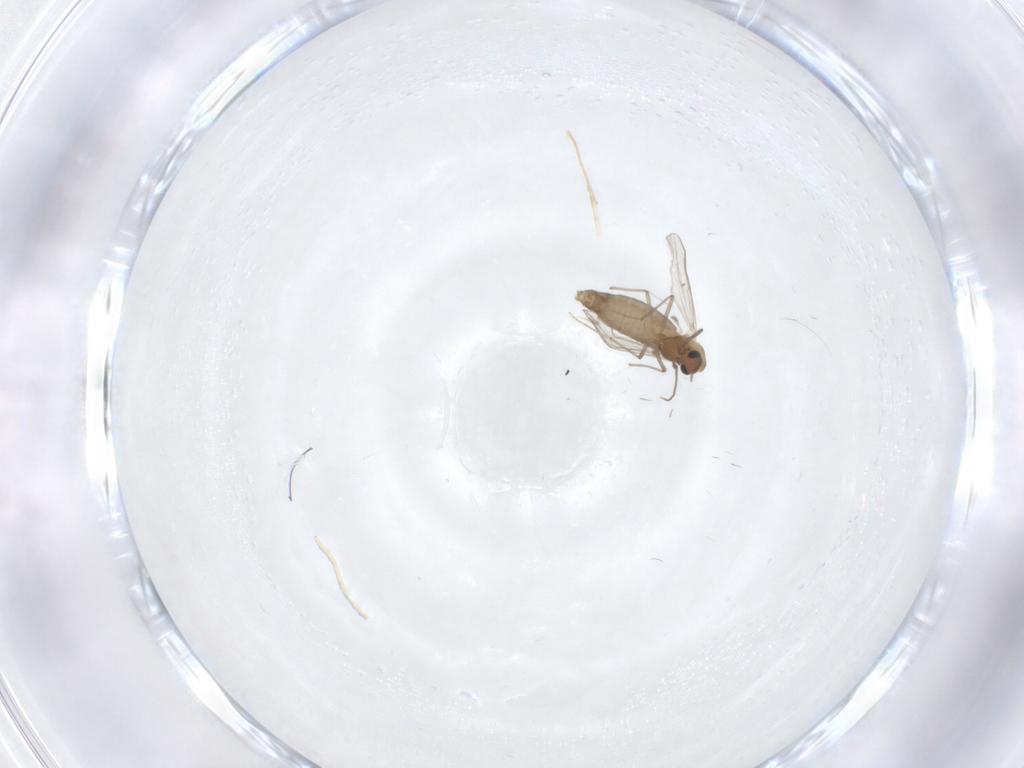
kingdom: Animalia
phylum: Arthropoda
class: Insecta
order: Diptera
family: Chironomidae
